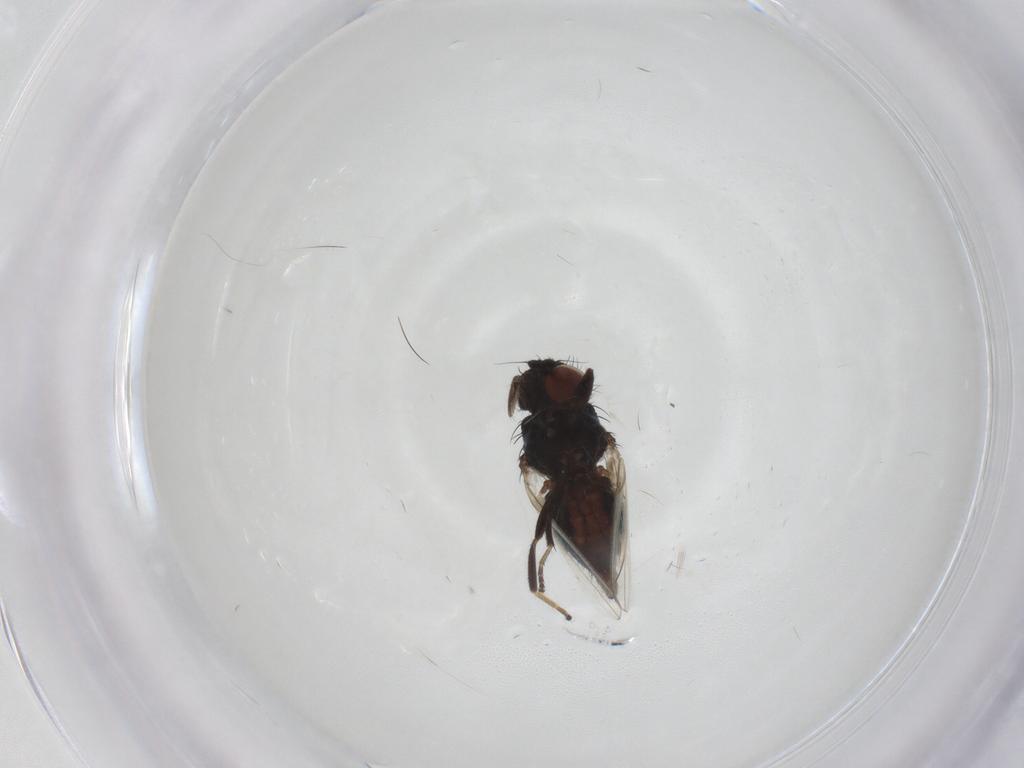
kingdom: Animalia
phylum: Arthropoda
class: Insecta
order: Diptera
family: Milichiidae
